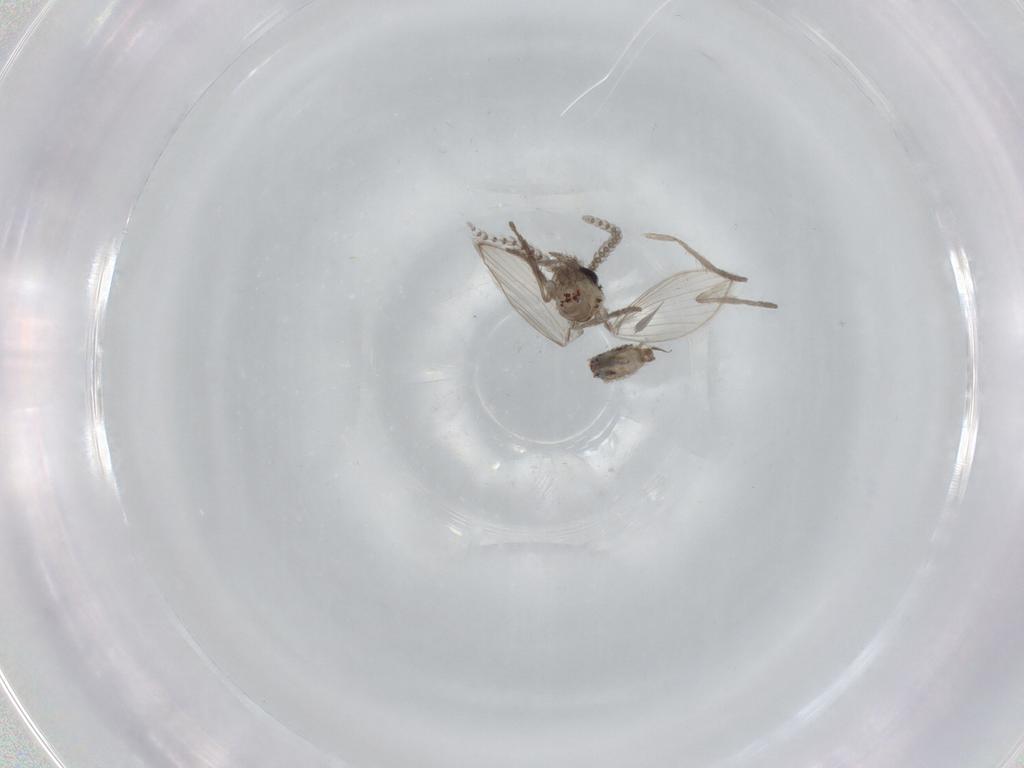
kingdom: Animalia
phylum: Arthropoda
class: Insecta
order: Diptera
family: Psychodidae
